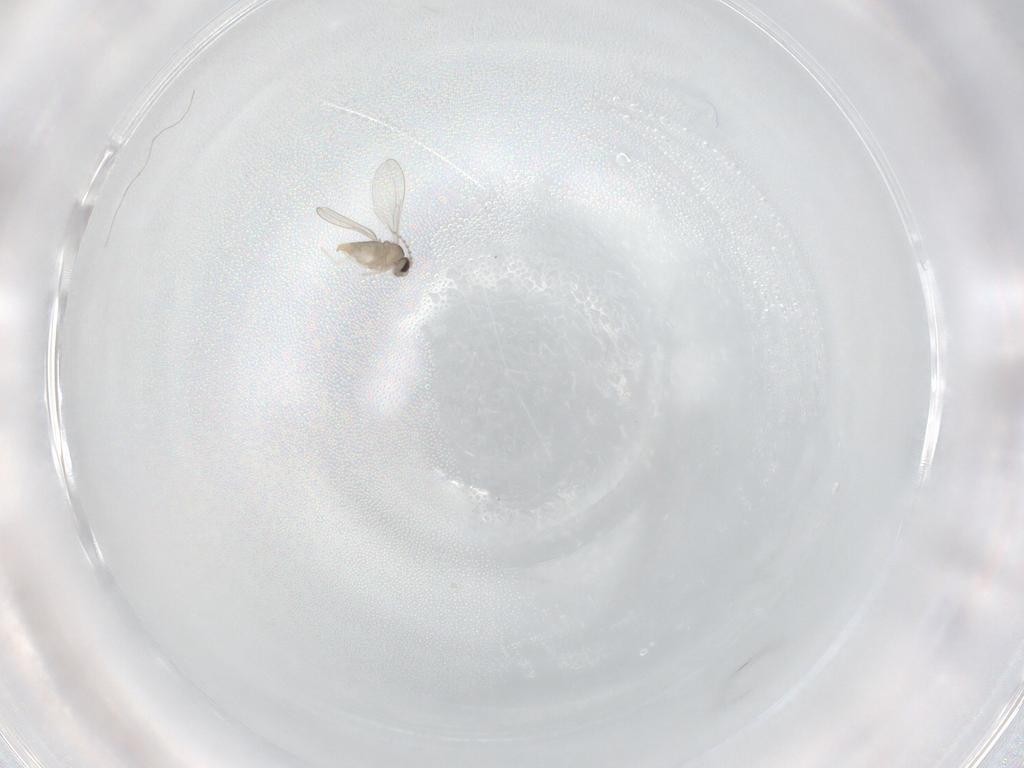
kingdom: Animalia
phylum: Arthropoda
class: Insecta
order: Diptera
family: Cecidomyiidae
